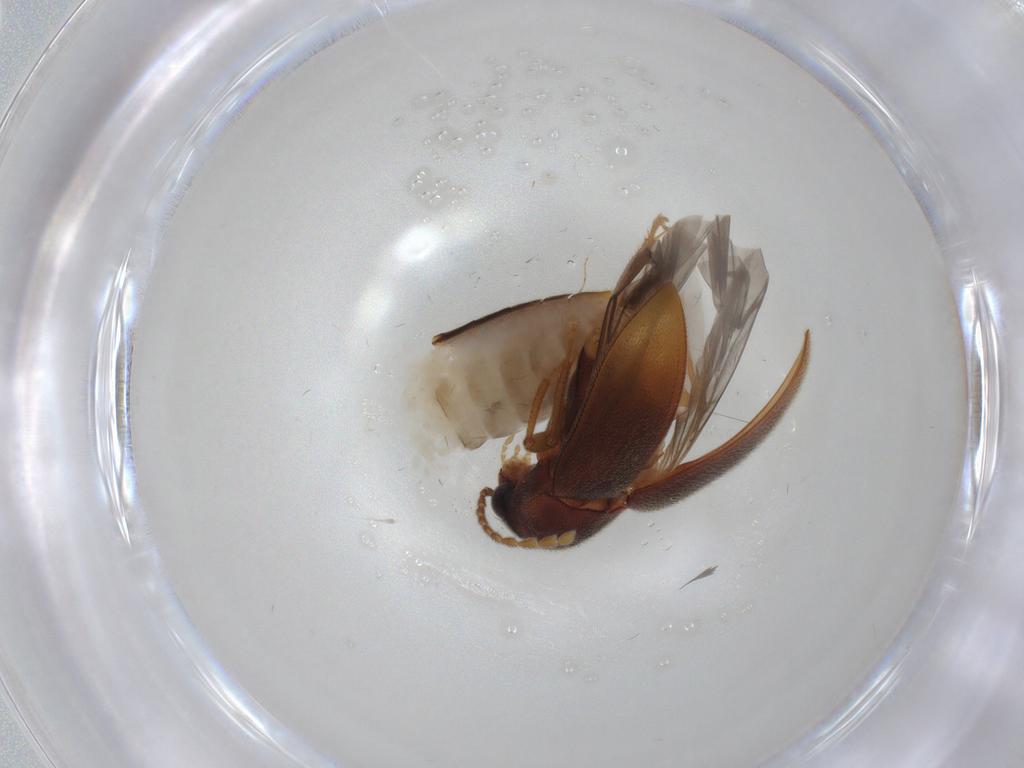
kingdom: Animalia
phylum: Arthropoda
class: Insecta
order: Coleoptera
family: Ptilodactylidae
